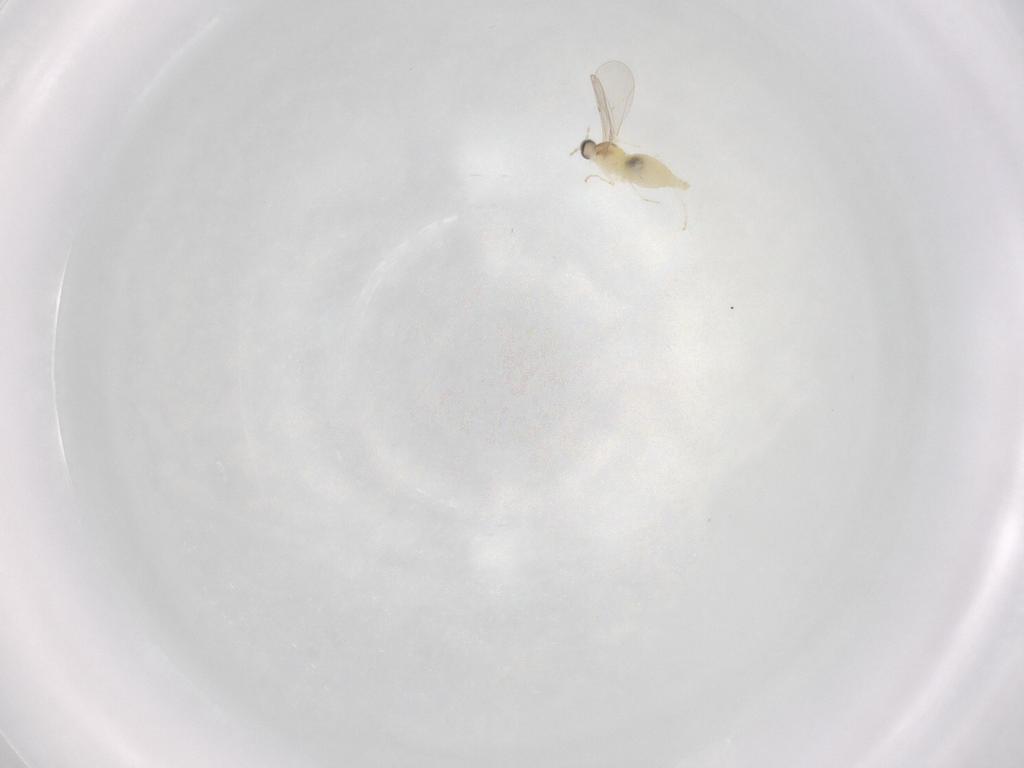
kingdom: Animalia
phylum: Arthropoda
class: Insecta
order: Diptera
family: Cecidomyiidae
